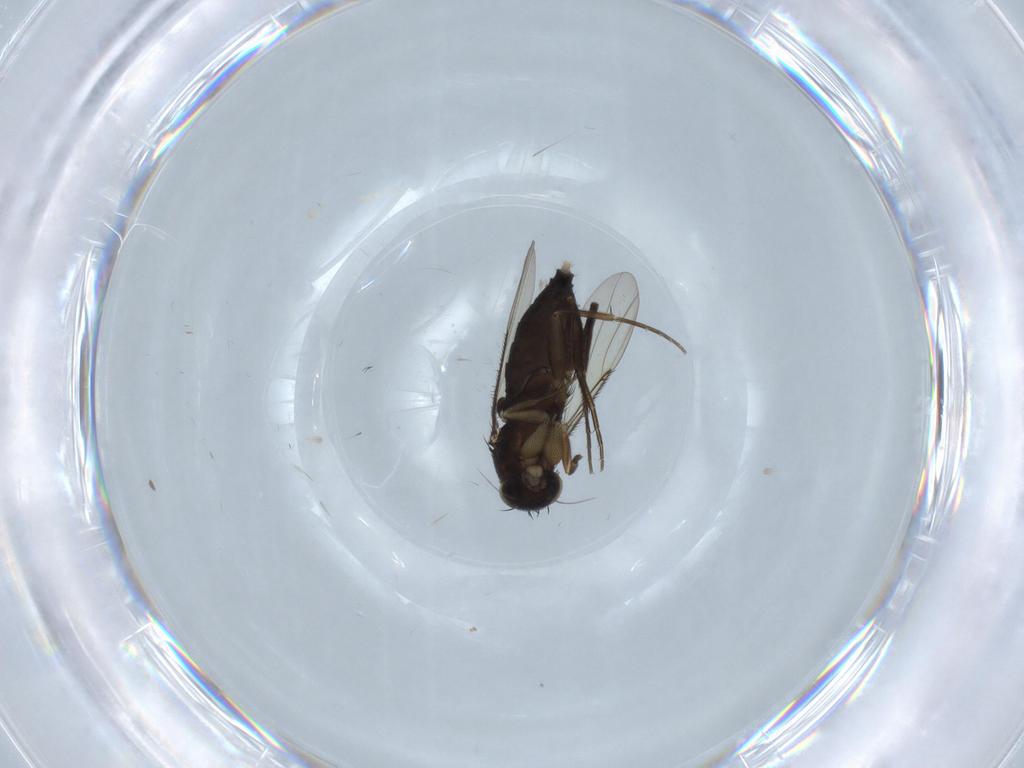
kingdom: Animalia
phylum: Arthropoda
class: Insecta
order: Diptera
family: Phoridae
